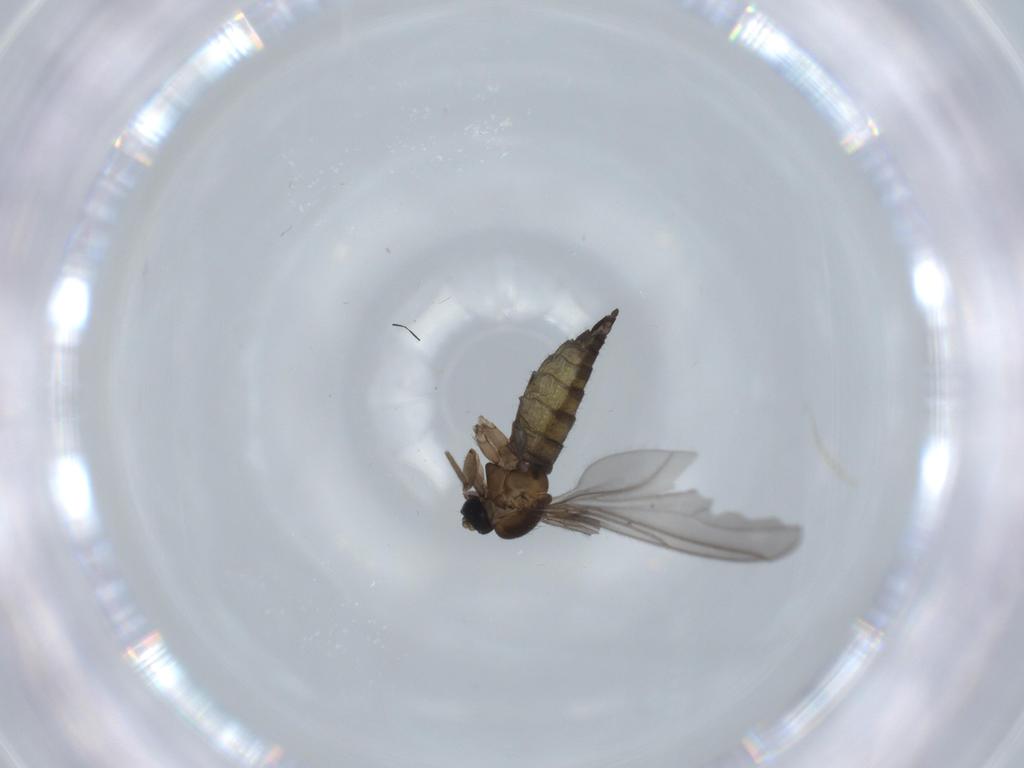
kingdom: Animalia
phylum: Arthropoda
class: Insecta
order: Diptera
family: Sciaridae
